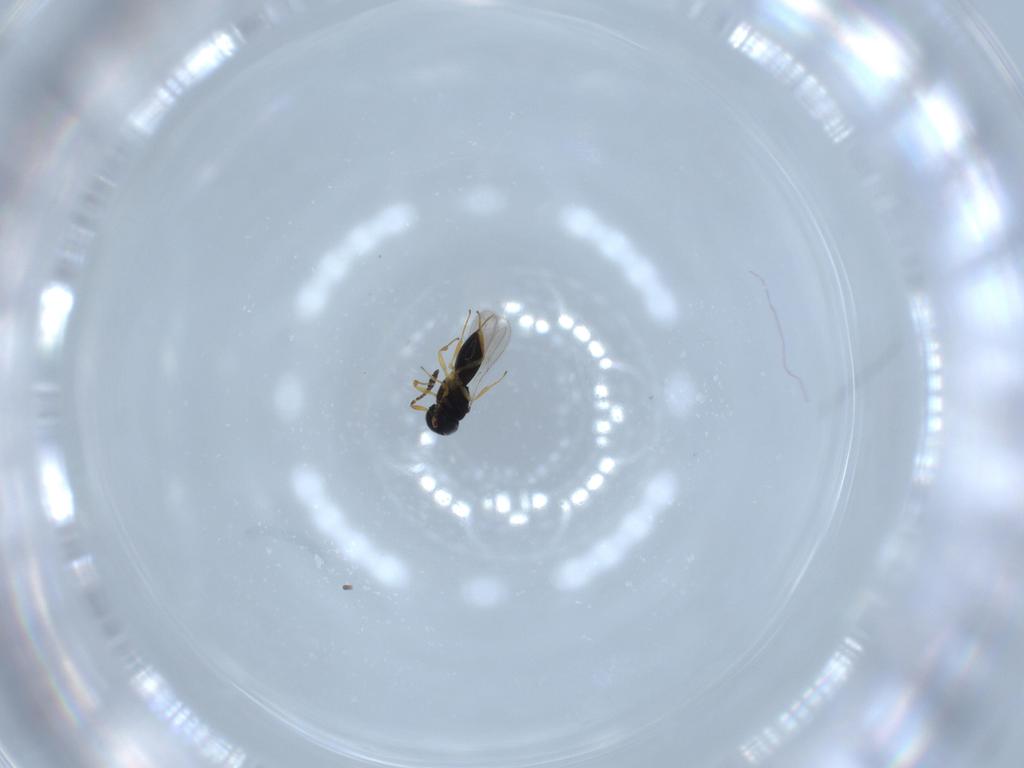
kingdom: Animalia
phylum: Arthropoda
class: Insecta
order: Hymenoptera
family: Scelionidae
